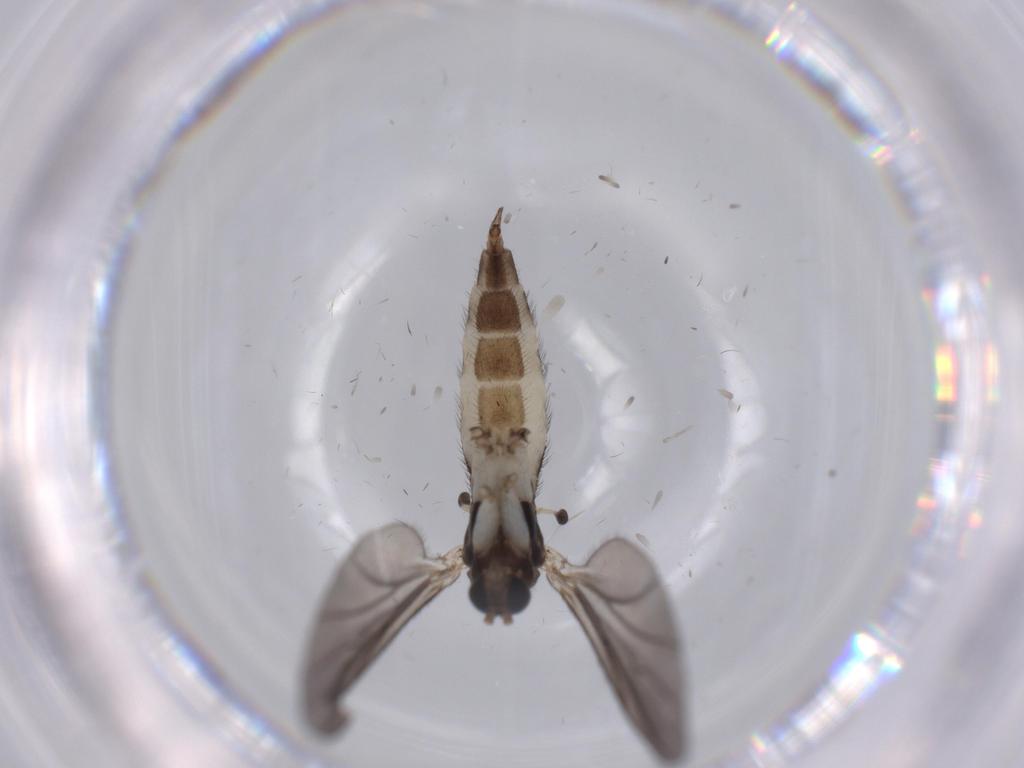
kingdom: Animalia
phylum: Arthropoda
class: Insecta
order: Diptera
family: Sciaridae
